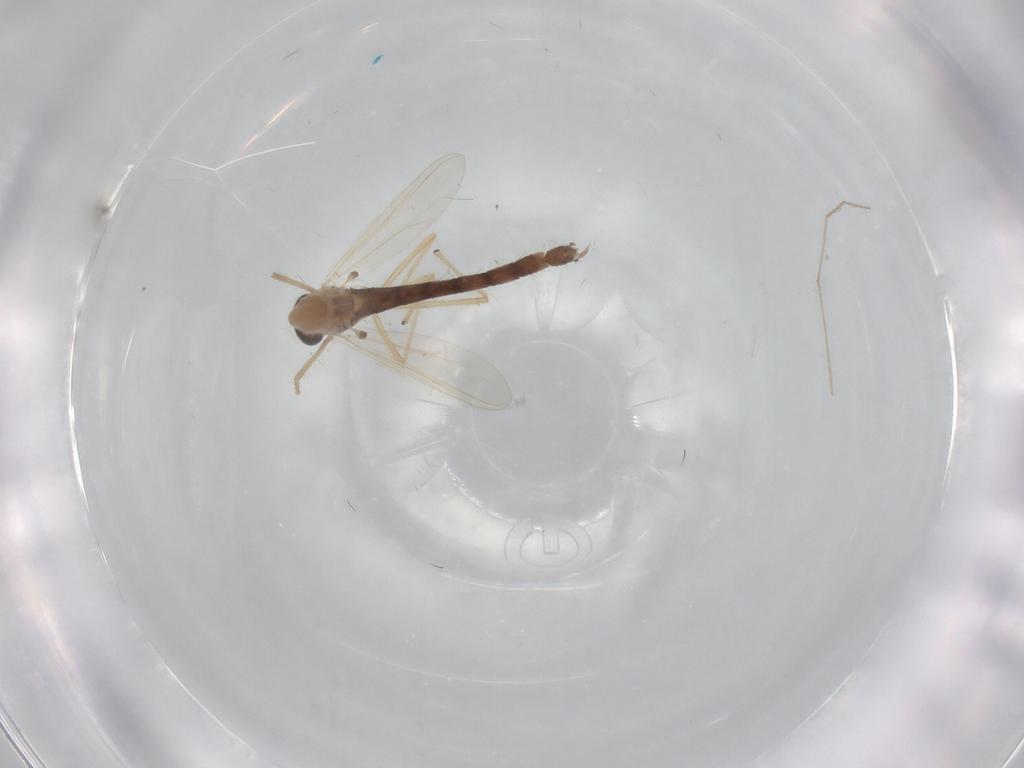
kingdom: Animalia
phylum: Arthropoda
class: Insecta
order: Diptera
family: Cecidomyiidae
